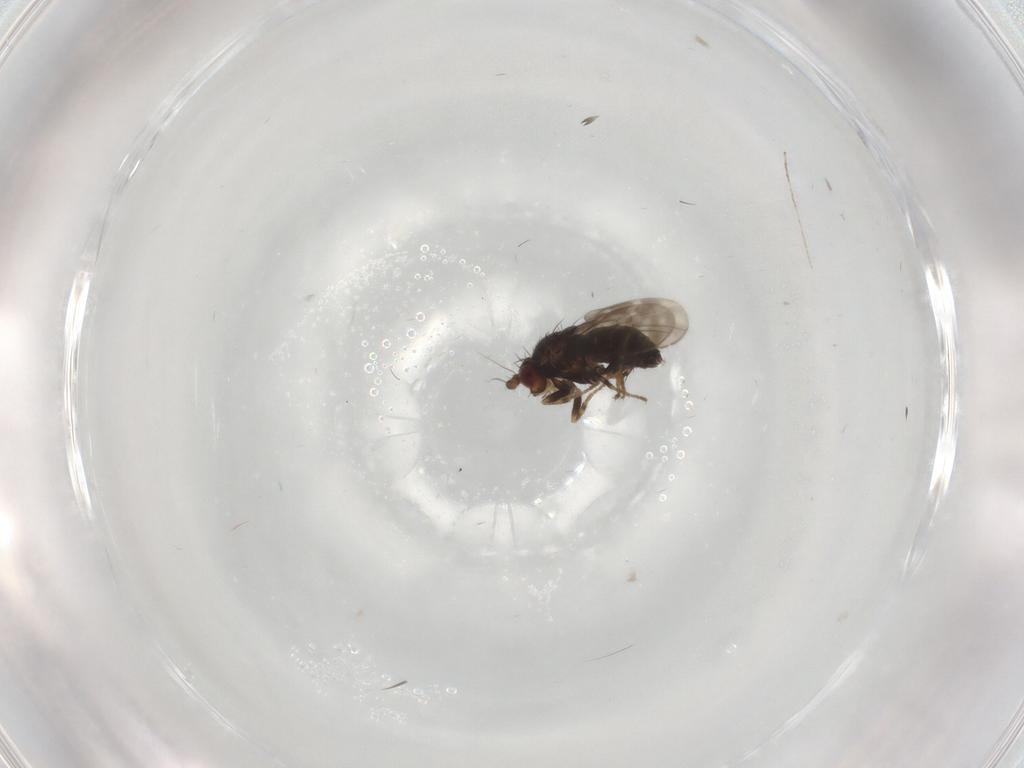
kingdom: Animalia
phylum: Arthropoda
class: Insecta
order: Diptera
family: Sphaeroceridae
